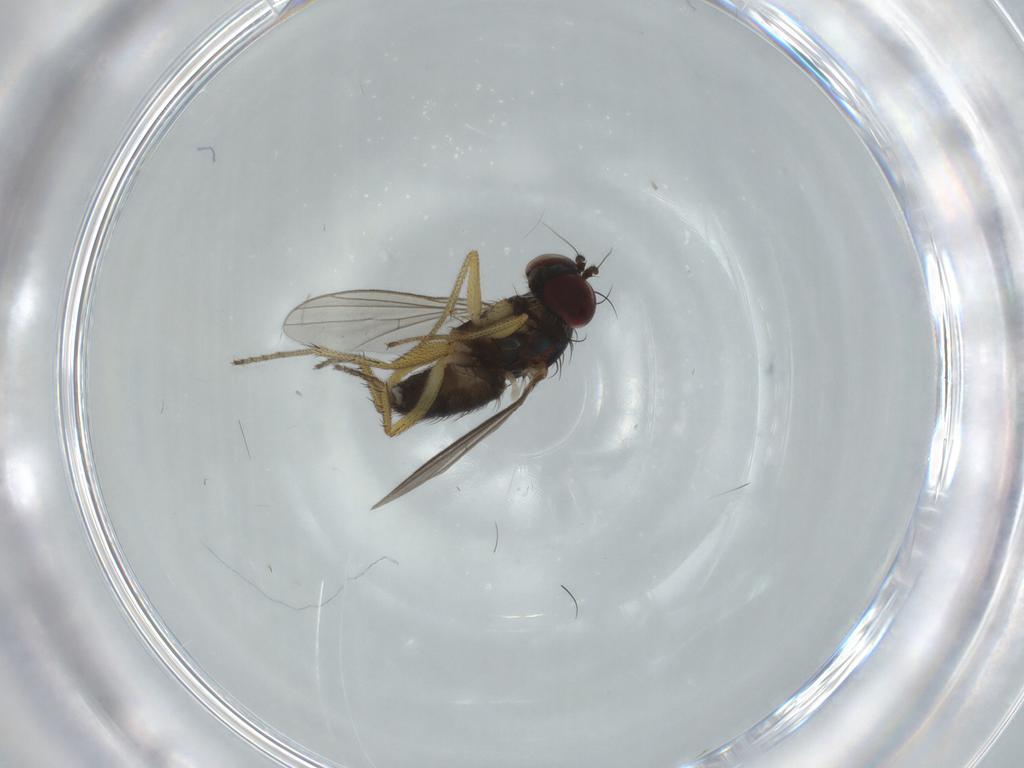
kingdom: Animalia
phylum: Arthropoda
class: Insecta
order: Diptera
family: Dolichopodidae
